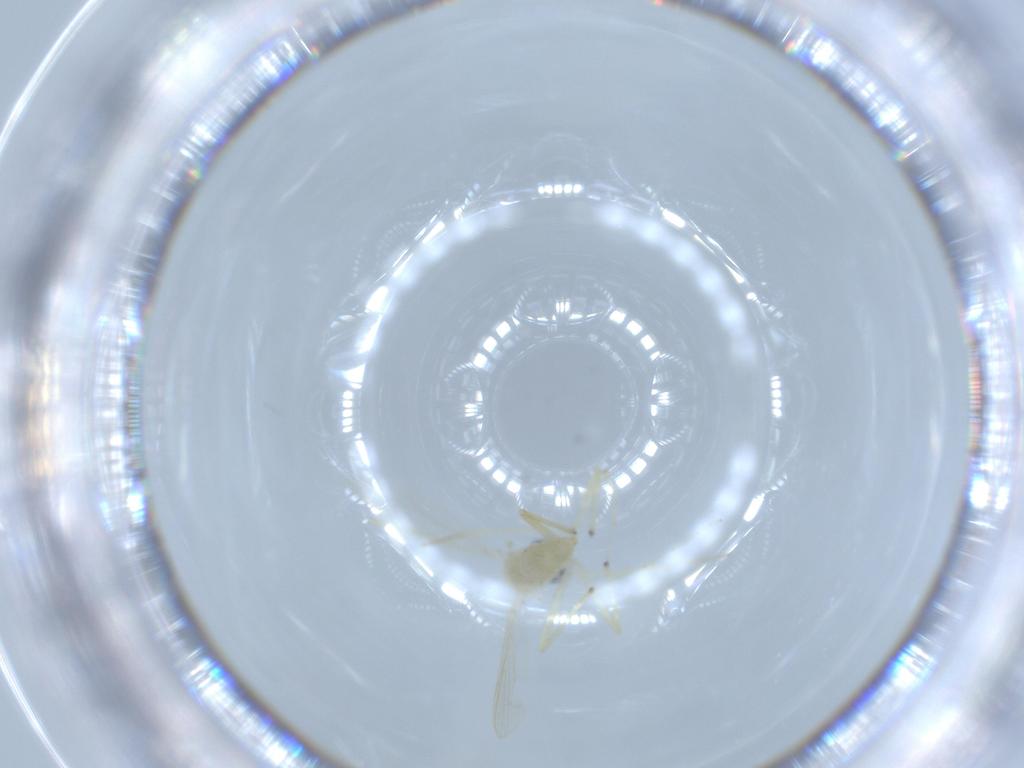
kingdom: Animalia
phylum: Arthropoda
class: Insecta
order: Diptera
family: Chironomidae
